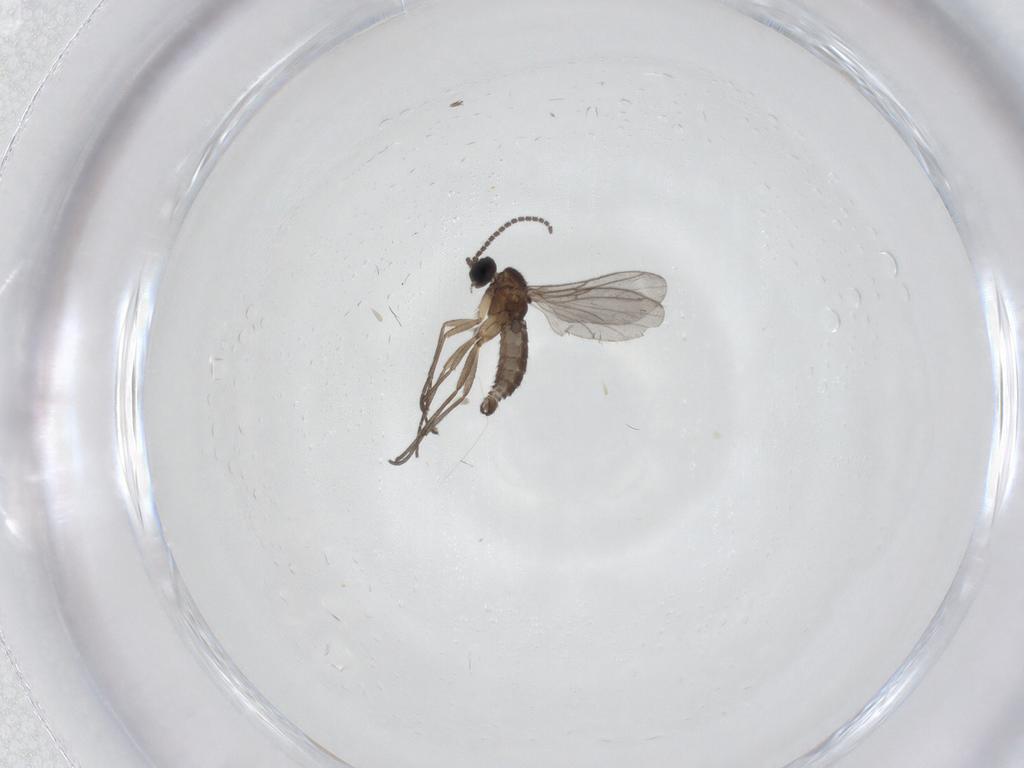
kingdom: Animalia
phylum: Arthropoda
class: Insecta
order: Diptera
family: Sciaridae
